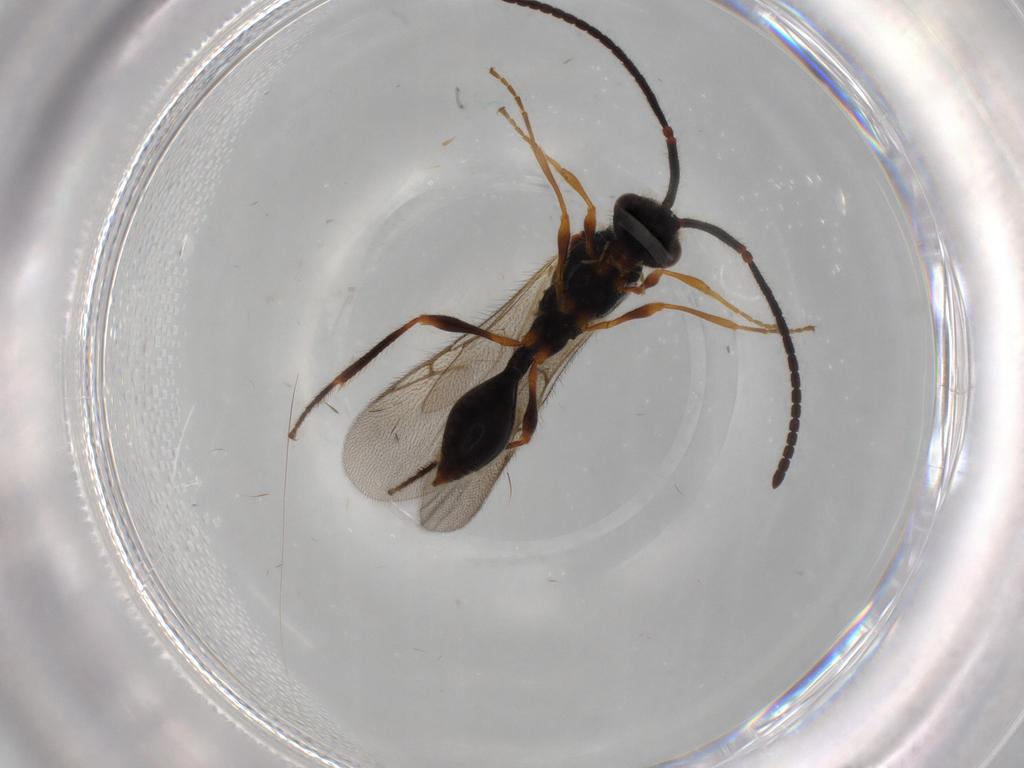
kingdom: Animalia
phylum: Arthropoda
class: Insecta
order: Hymenoptera
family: Diapriidae
